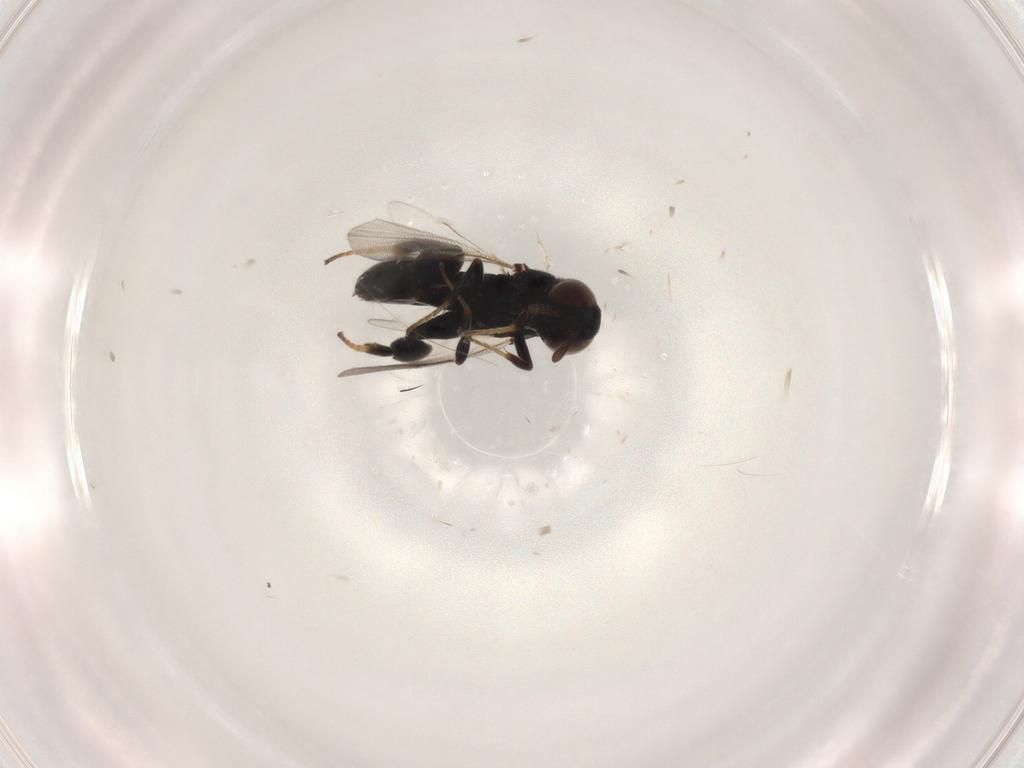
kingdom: Animalia
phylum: Arthropoda
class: Insecta
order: Hymenoptera
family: Torymidae
